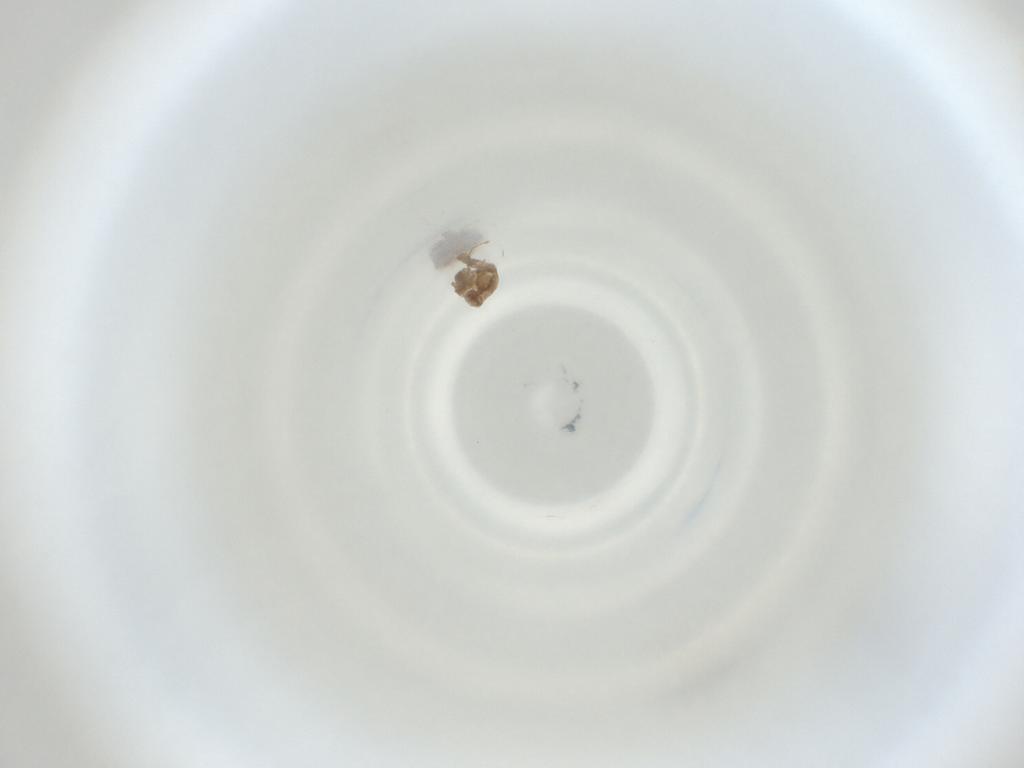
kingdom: Animalia
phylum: Arthropoda
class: Insecta
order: Diptera
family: Cecidomyiidae
